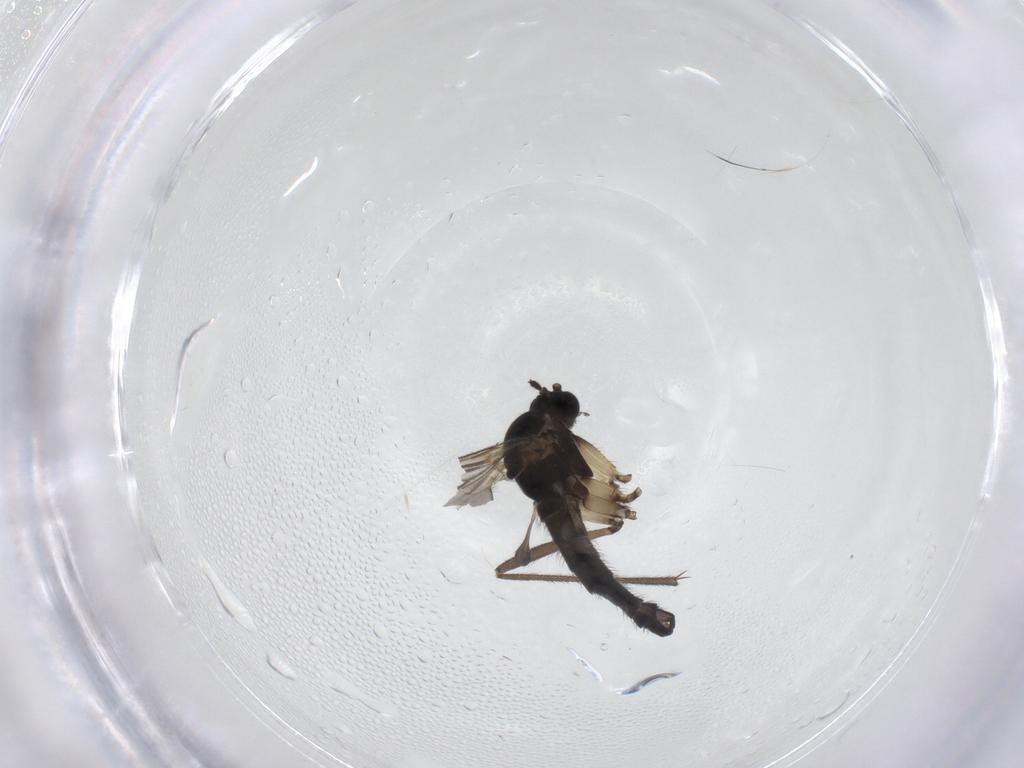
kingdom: Animalia
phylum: Arthropoda
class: Insecta
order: Diptera
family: Sciaridae
